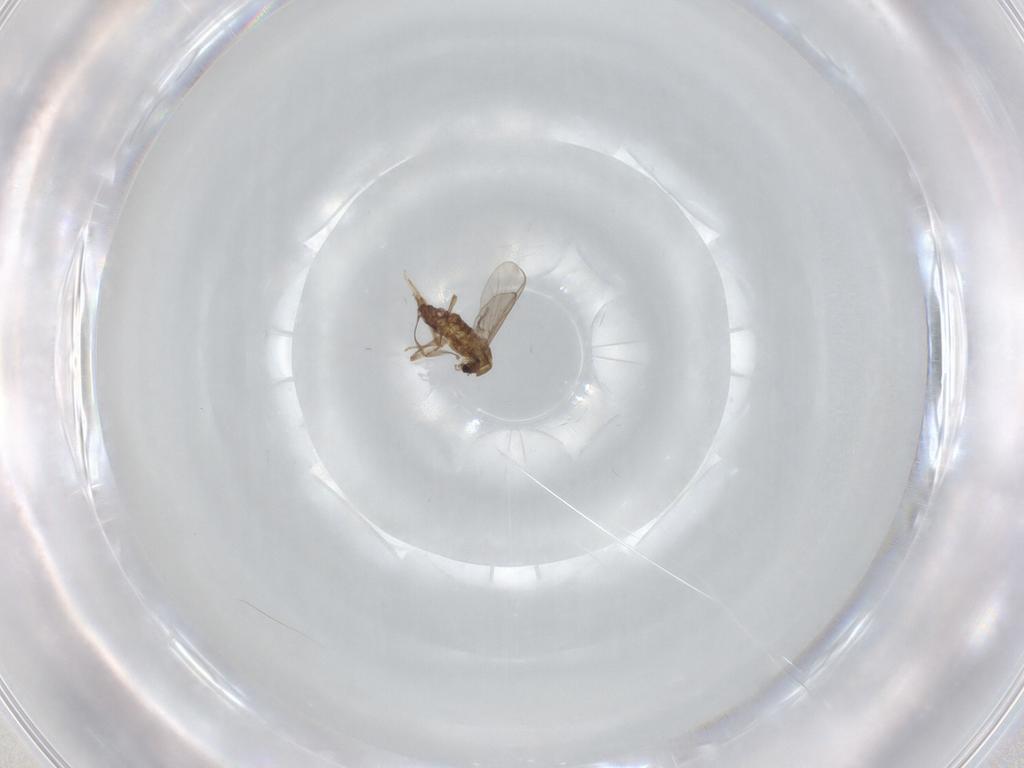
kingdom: Animalia
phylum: Arthropoda
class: Insecta
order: Diptera
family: Chironomidae
